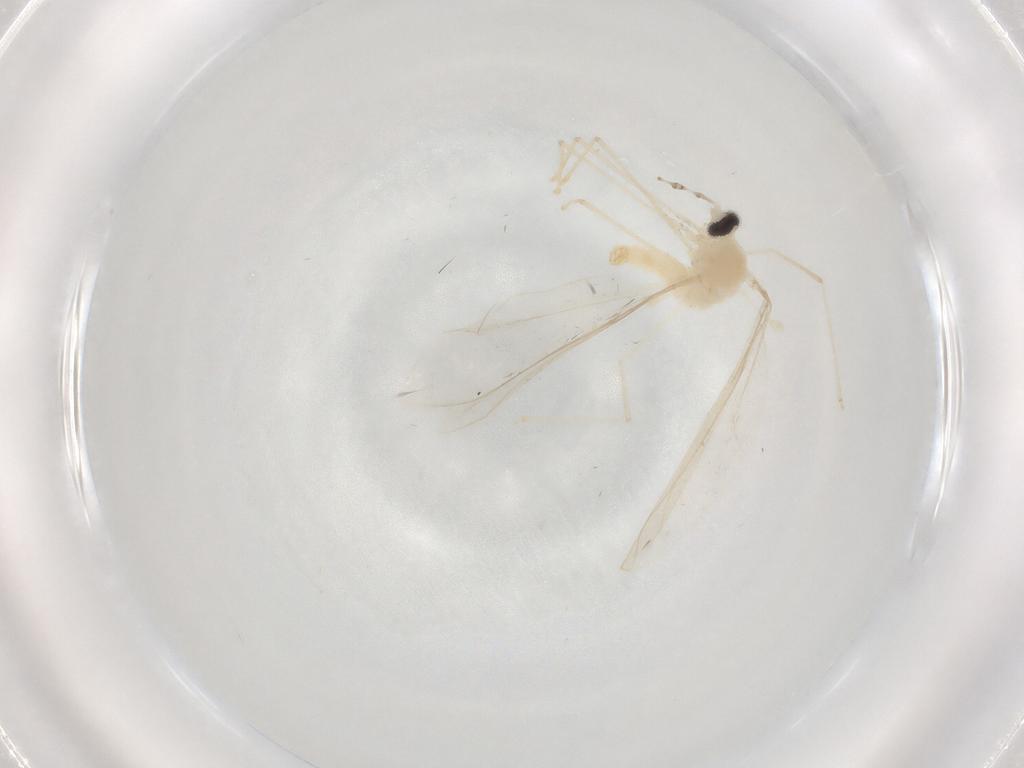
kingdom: Animalia
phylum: Arthropoda
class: Insecta
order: Diptera
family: Cecidomyiidae
